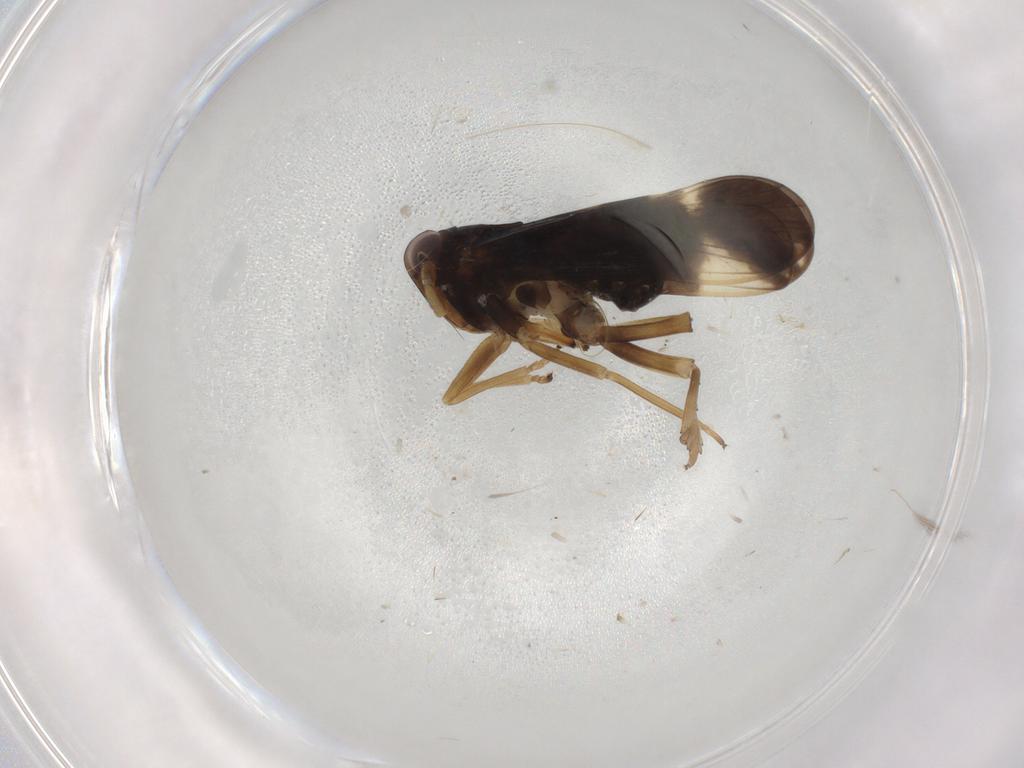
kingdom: Animalia
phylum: Arthropoda
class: Insecta
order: Hemiptera
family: Delphacidae
